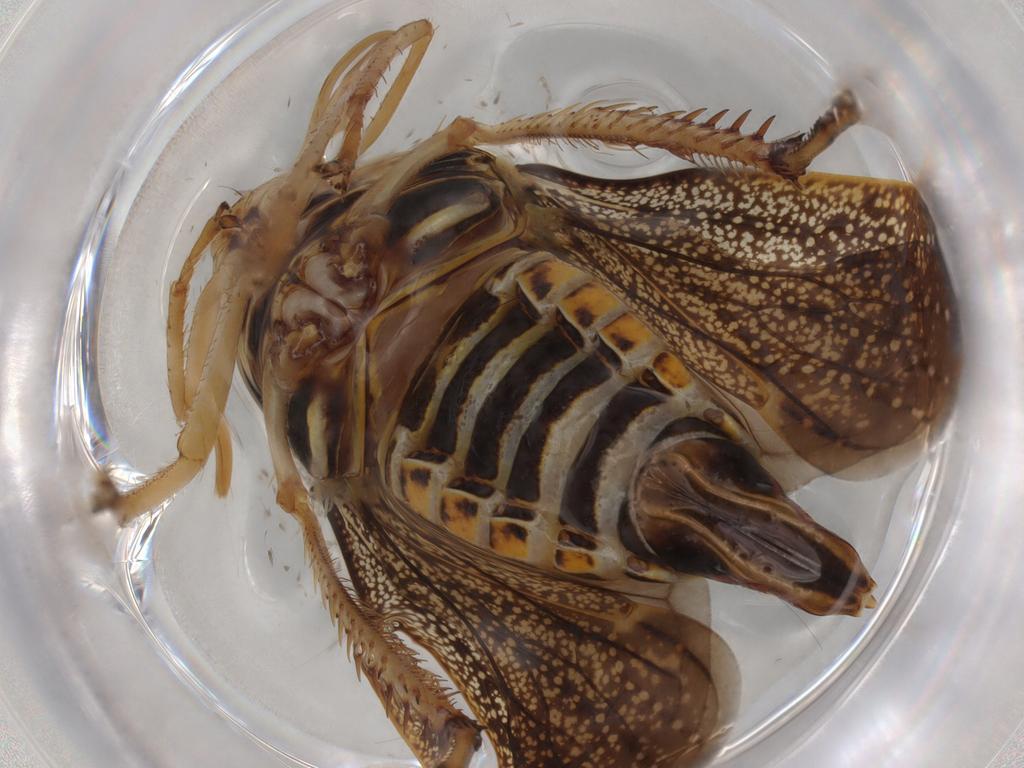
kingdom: Animalia
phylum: Arthropoda
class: Insecta
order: Hemiptera
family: Cicadellidae
